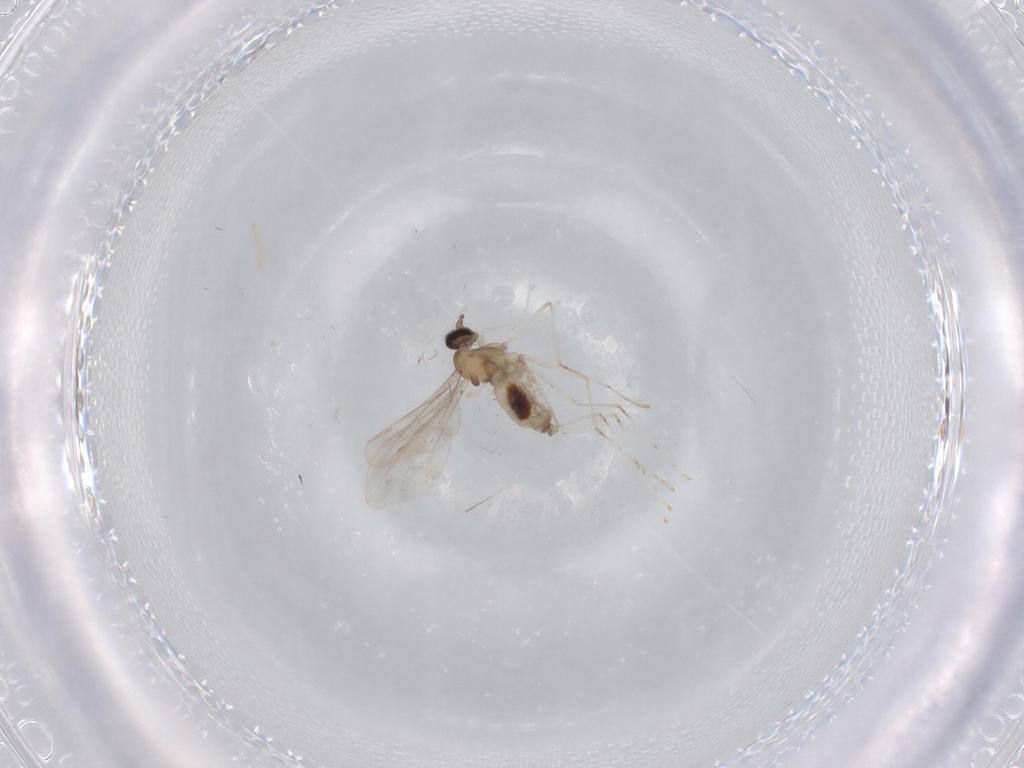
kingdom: Animalia
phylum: Arthropoda
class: Insecta
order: Diptera
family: Cecidomyiidae
